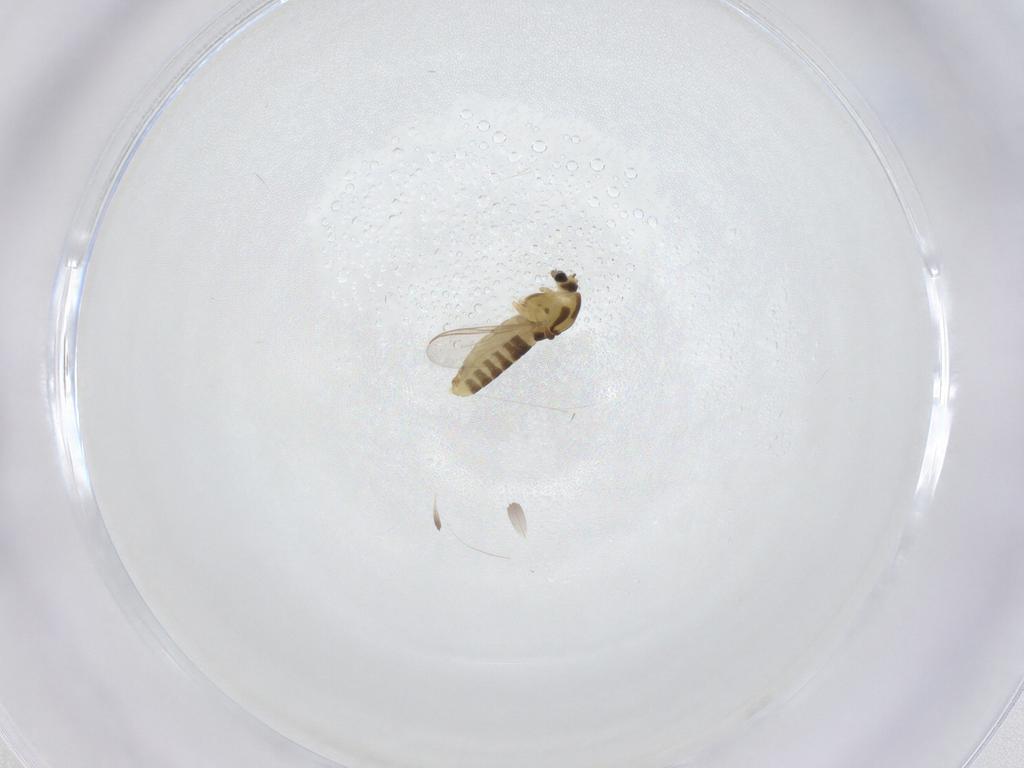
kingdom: Animalia
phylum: Arthropoda
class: Insecta
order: Diptera
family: Chironomidae
